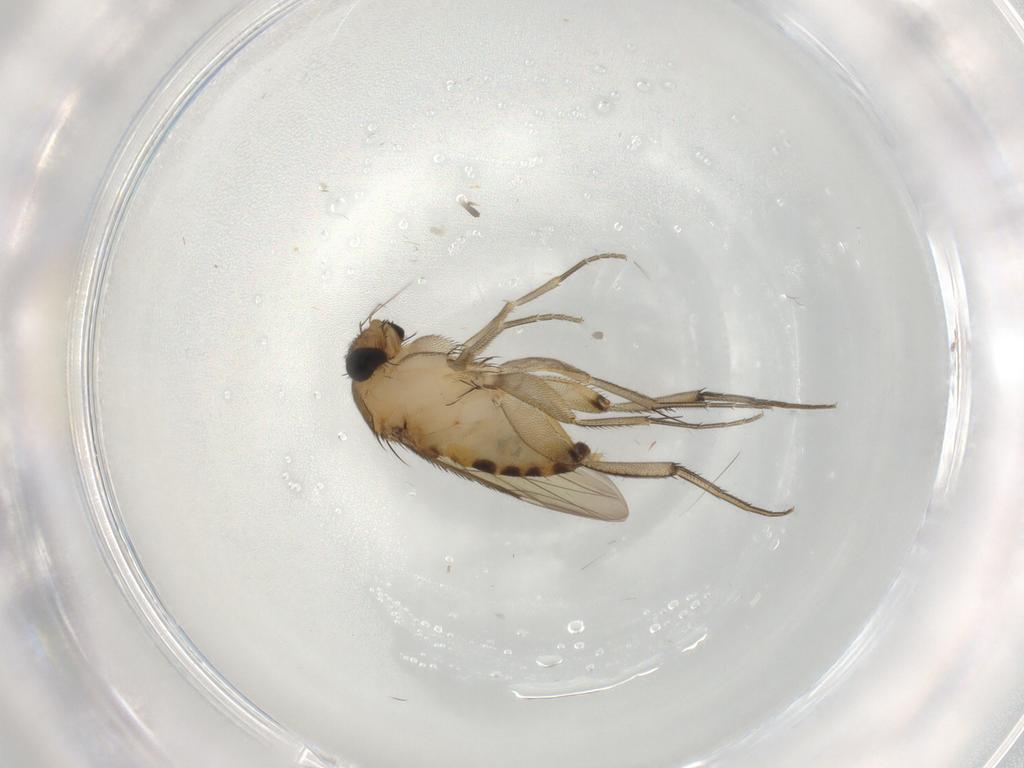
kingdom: Animalia
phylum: Arthropoda
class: Insecta
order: Diptera
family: Phoridae
